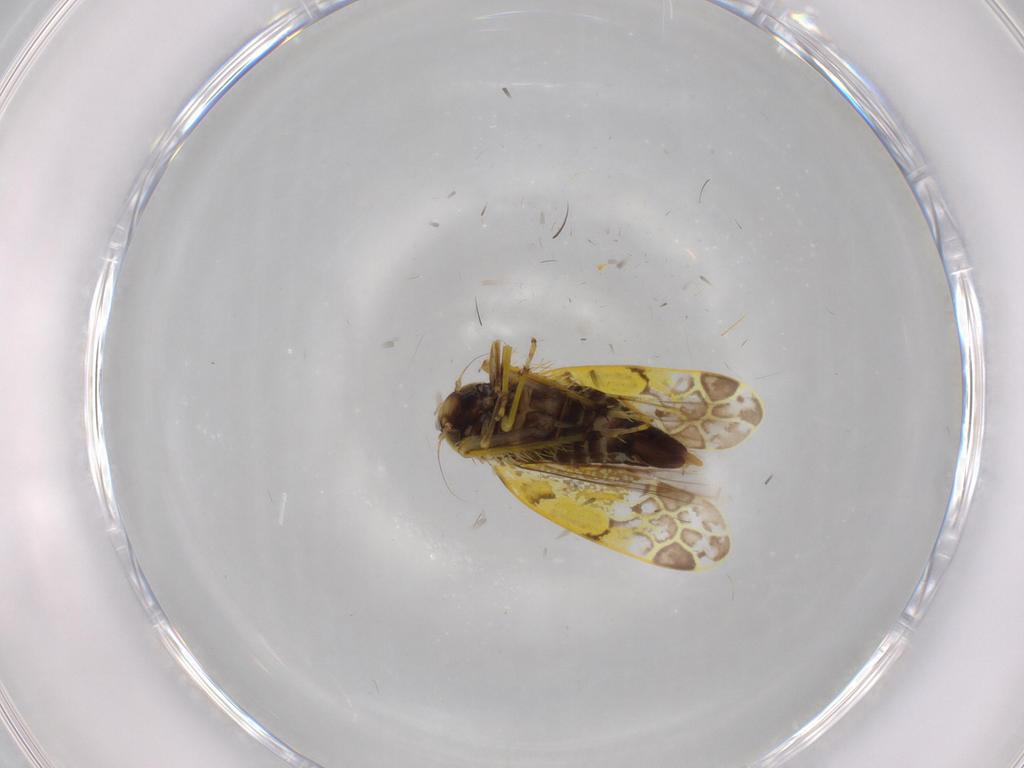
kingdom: Animalia
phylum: Arthropoda
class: Insecta
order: Hemiptera
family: Cicadellidae
